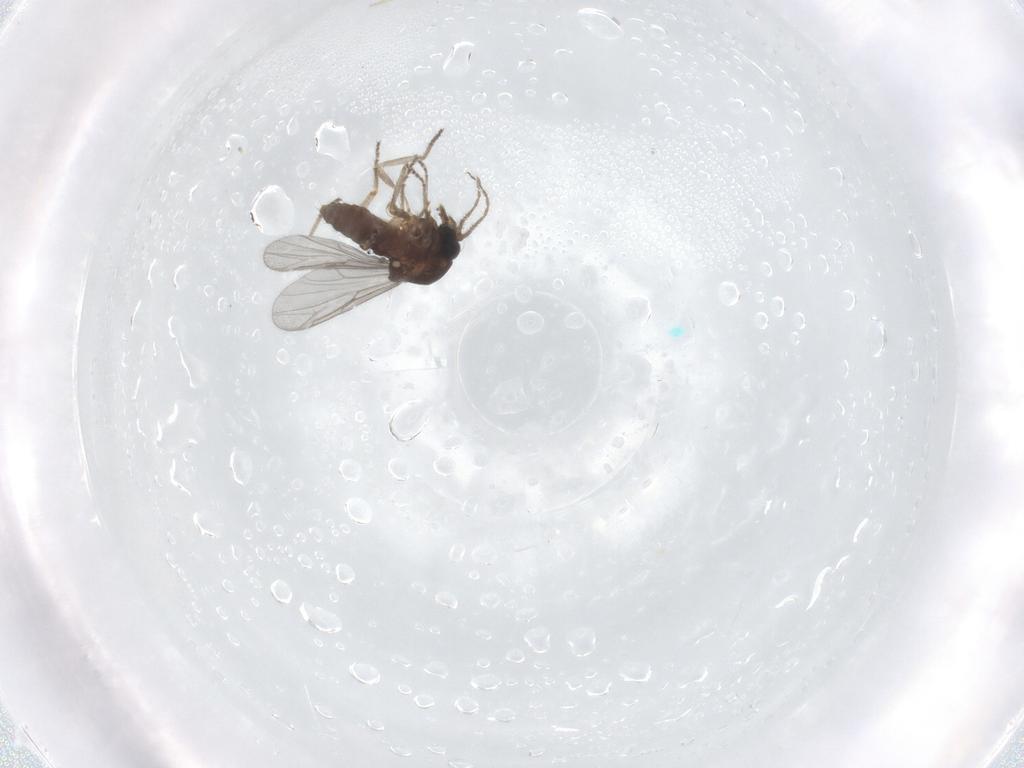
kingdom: Animalia
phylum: Arthropoda
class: Insecta
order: Diptera
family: Ceratopogonidae
